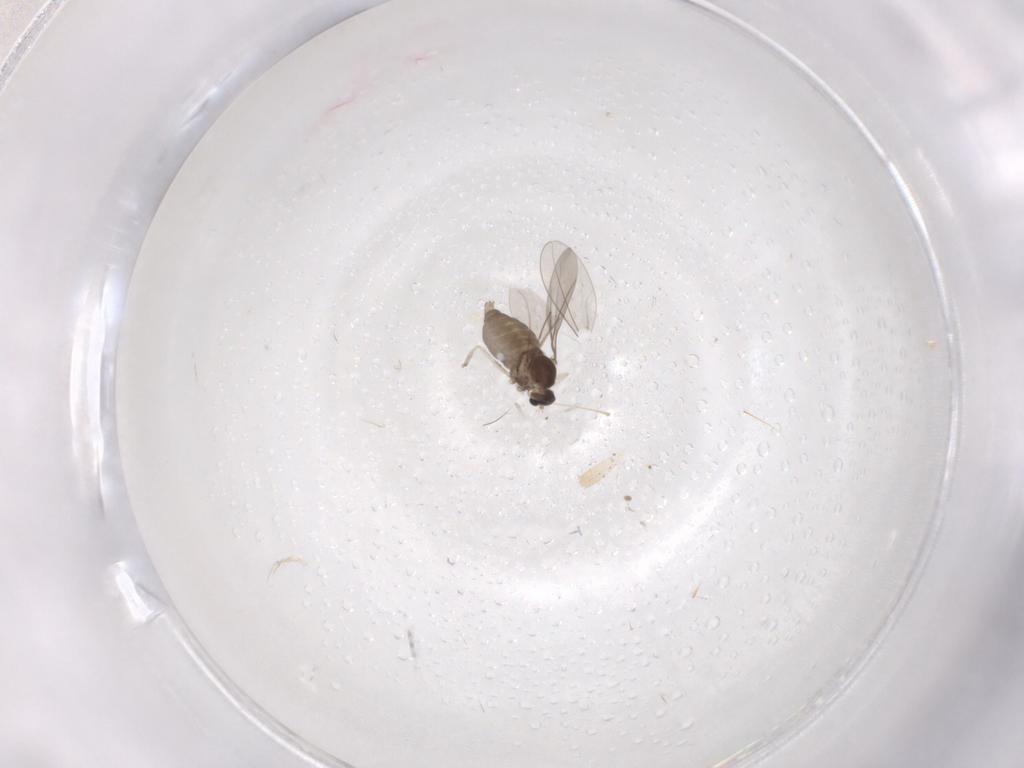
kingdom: Animalia
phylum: Arthropoda
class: Insecta
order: Diptera
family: Cecidomyiidae
